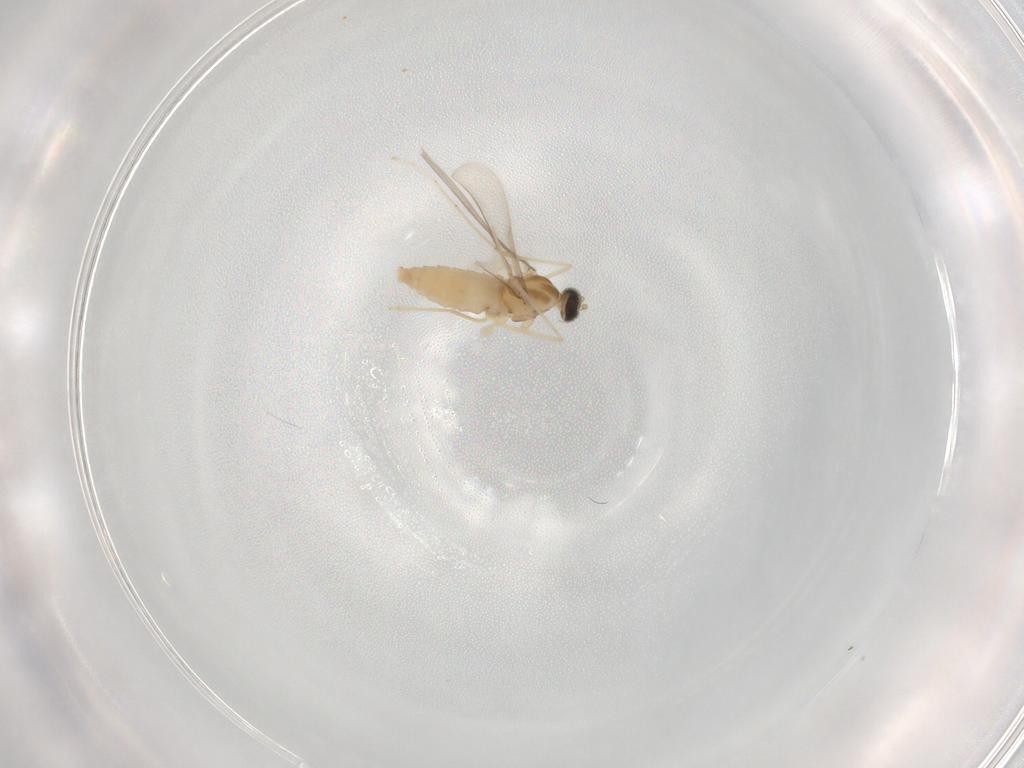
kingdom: Animalia
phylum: Arthropoda
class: Insecta
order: Diptera
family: Cecidomyiidae
